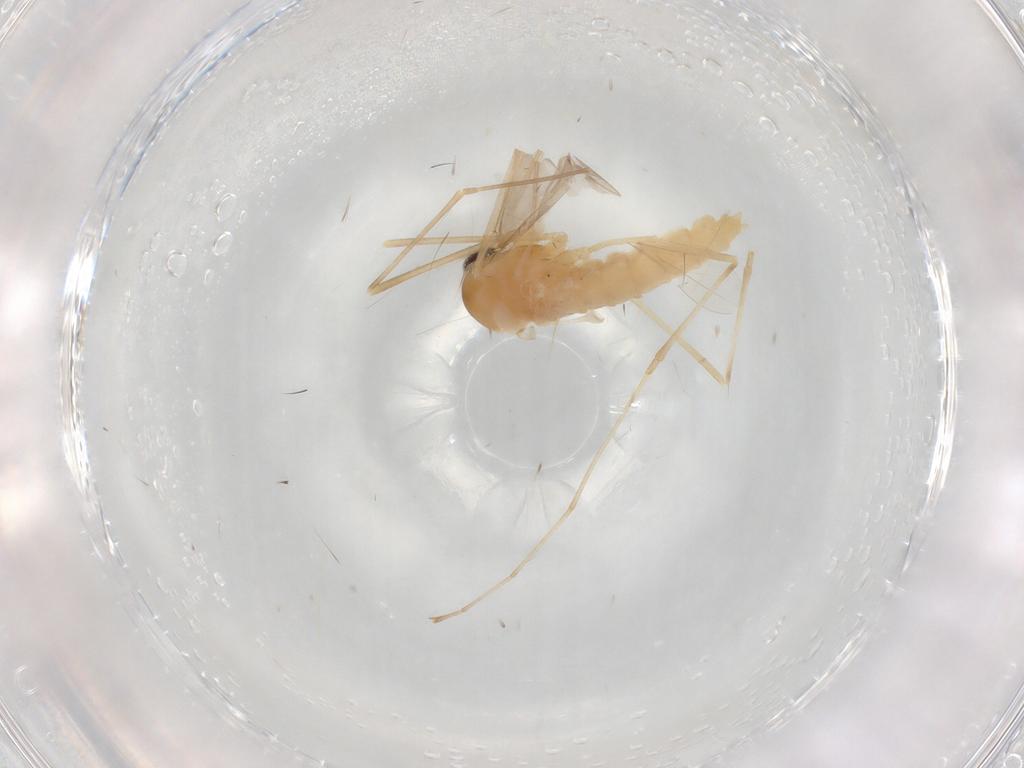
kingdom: Animalia
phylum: Arthropoda
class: Insecta
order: Diptera
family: Cecidomyiidae
